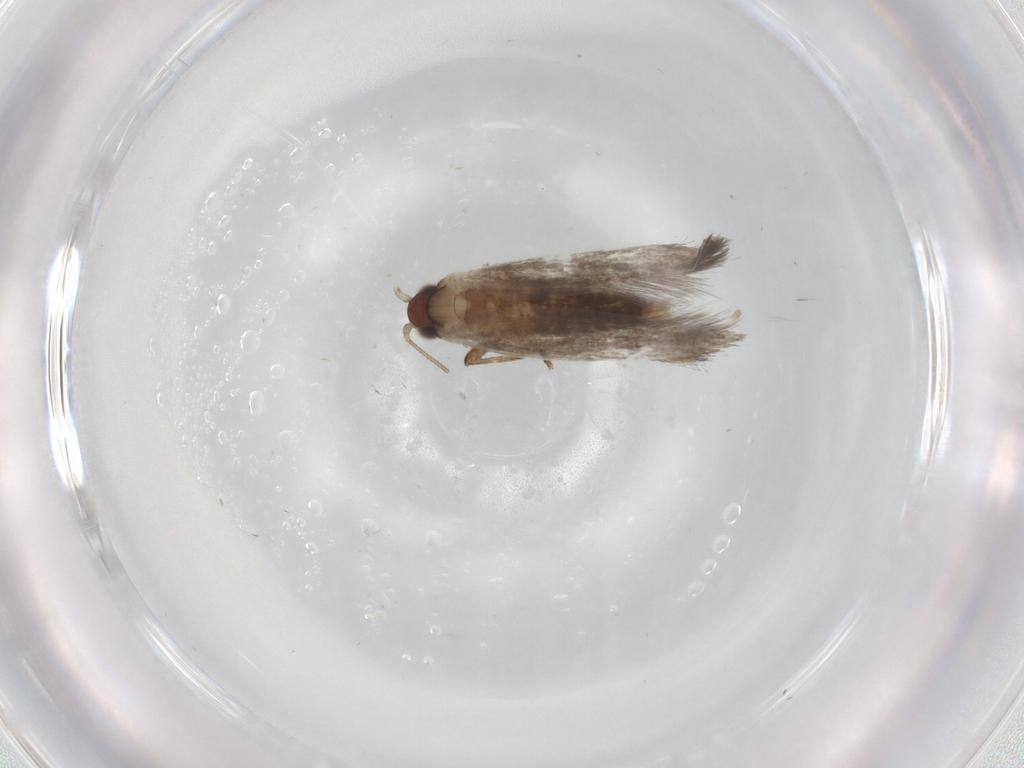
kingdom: Animalia
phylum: Arthropoda
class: Insecta
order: Lepidoptera
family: Tineidae
